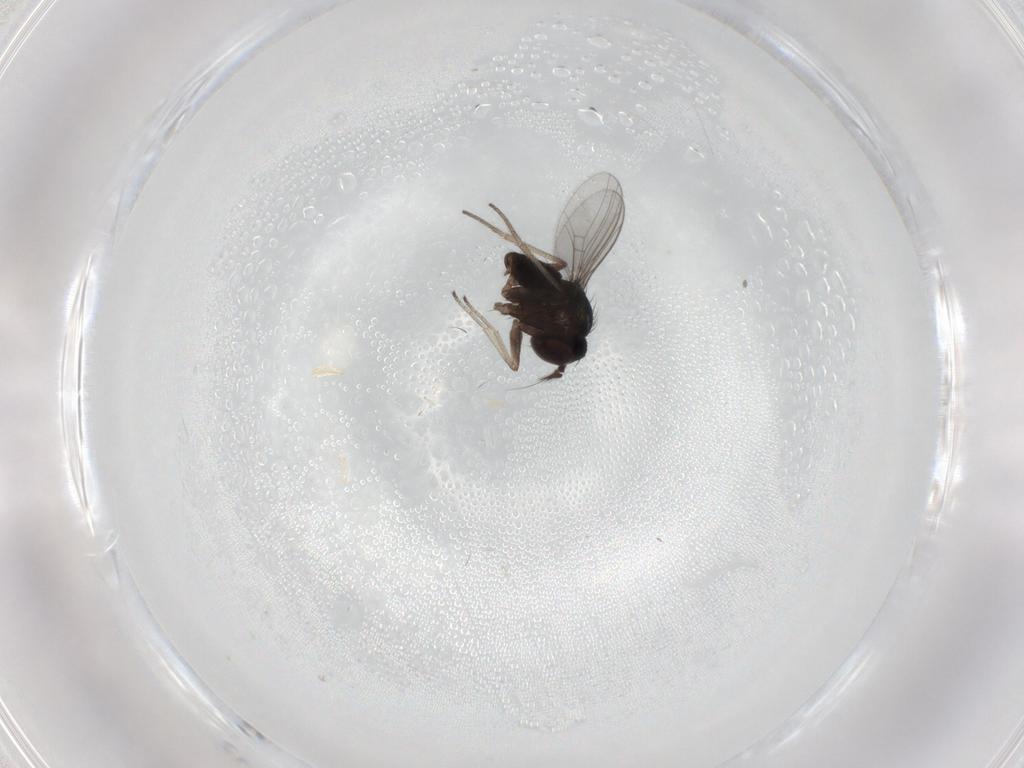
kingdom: Animalia
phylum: Arthropoda
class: Insecta
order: Diptera
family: Dolichopodidae
